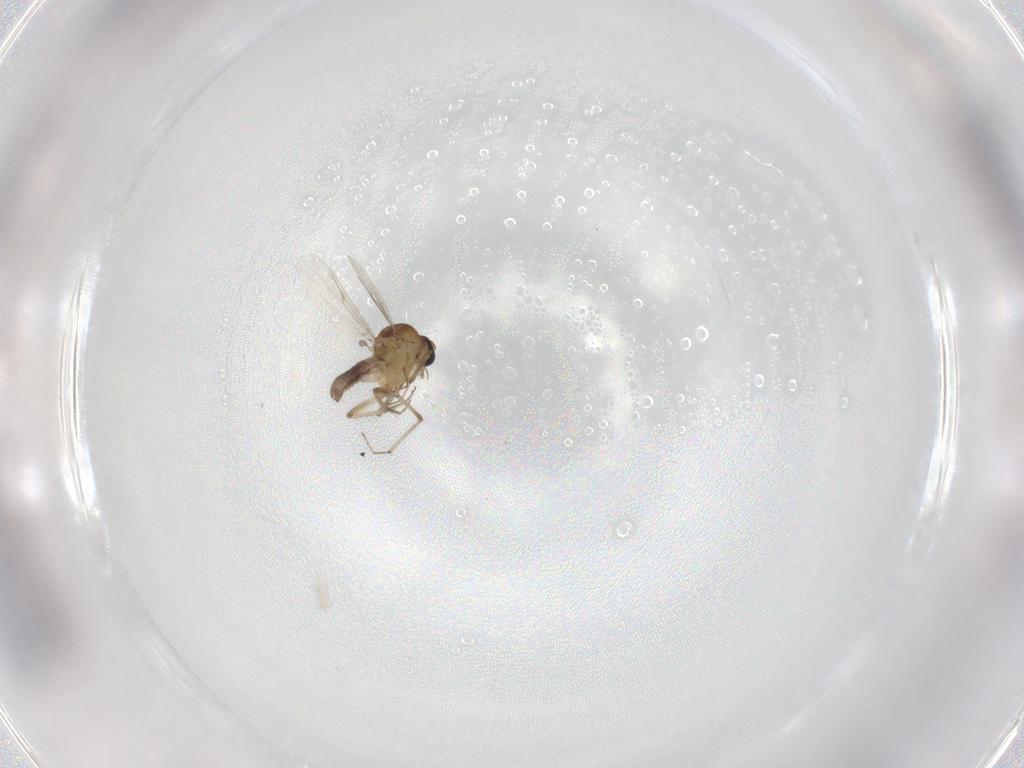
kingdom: Animalia
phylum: Arthropoda
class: Insecta
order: Diptera
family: Ceratopogonidae
